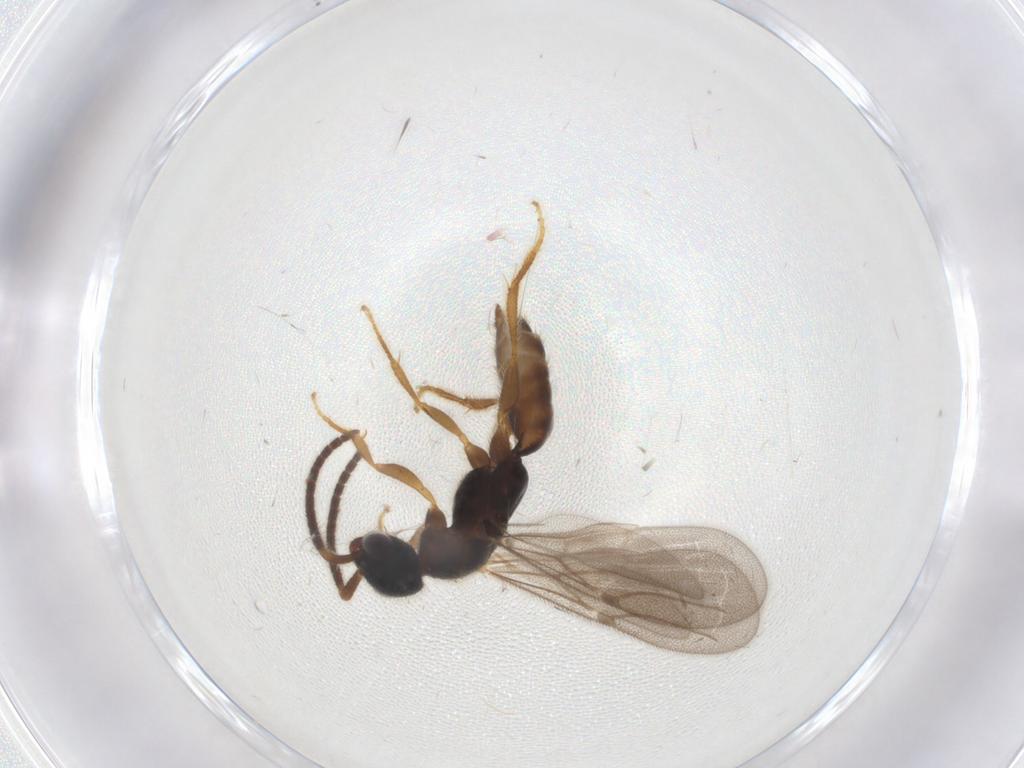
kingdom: Animalia
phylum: Arthropoda
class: Insecta
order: Hymenoptera
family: Bethylidae
